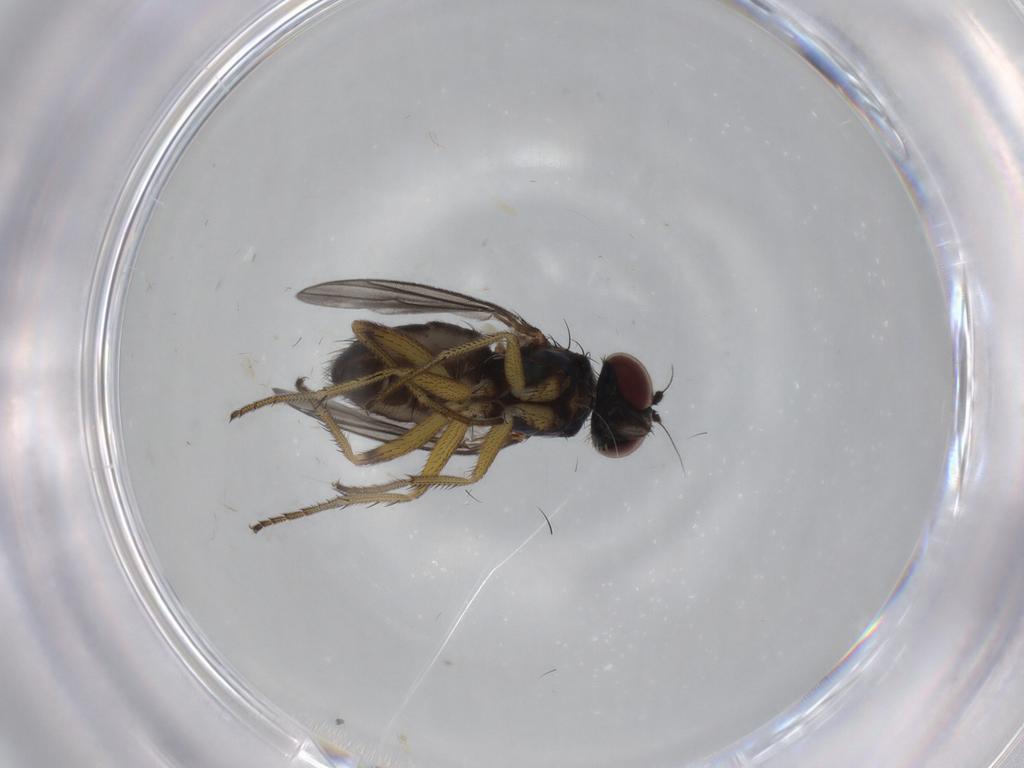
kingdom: Animalia
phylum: Arthropoda
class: Insecta
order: Diptera
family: Dolichopodidae
